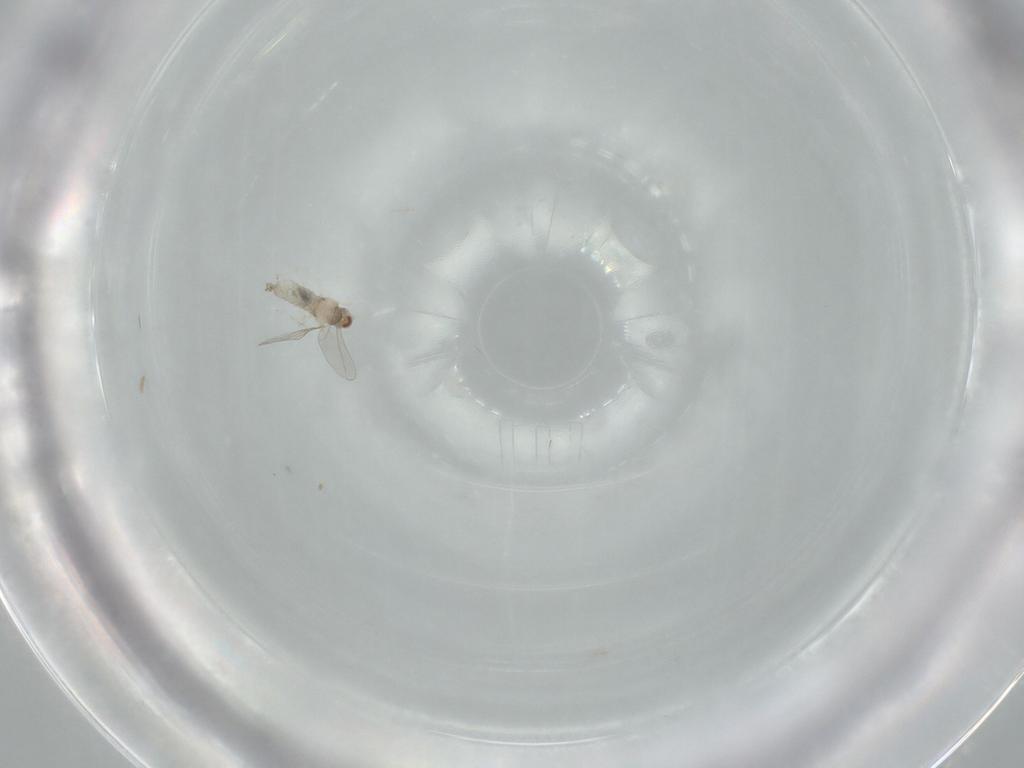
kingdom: Animalia
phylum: Arthropoda
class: Insecta
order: Diptera
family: Cecidomyiidae
